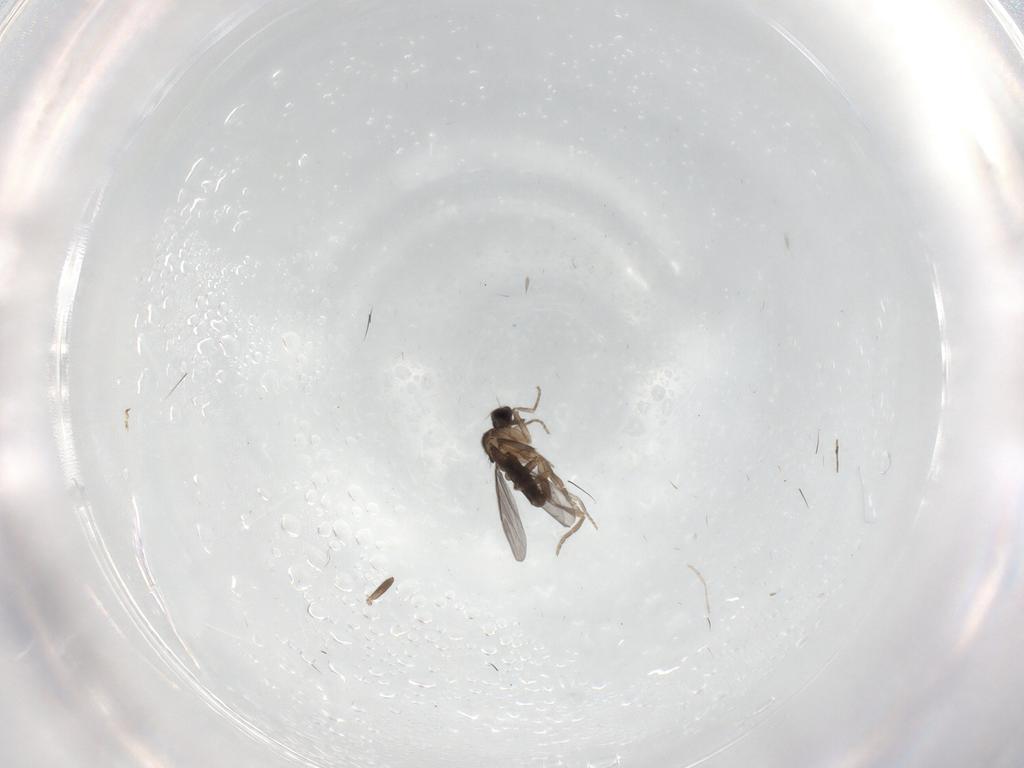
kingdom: Animalia
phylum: Arthropoda
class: Insecta
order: Diptera
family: Cecidomyiidae
